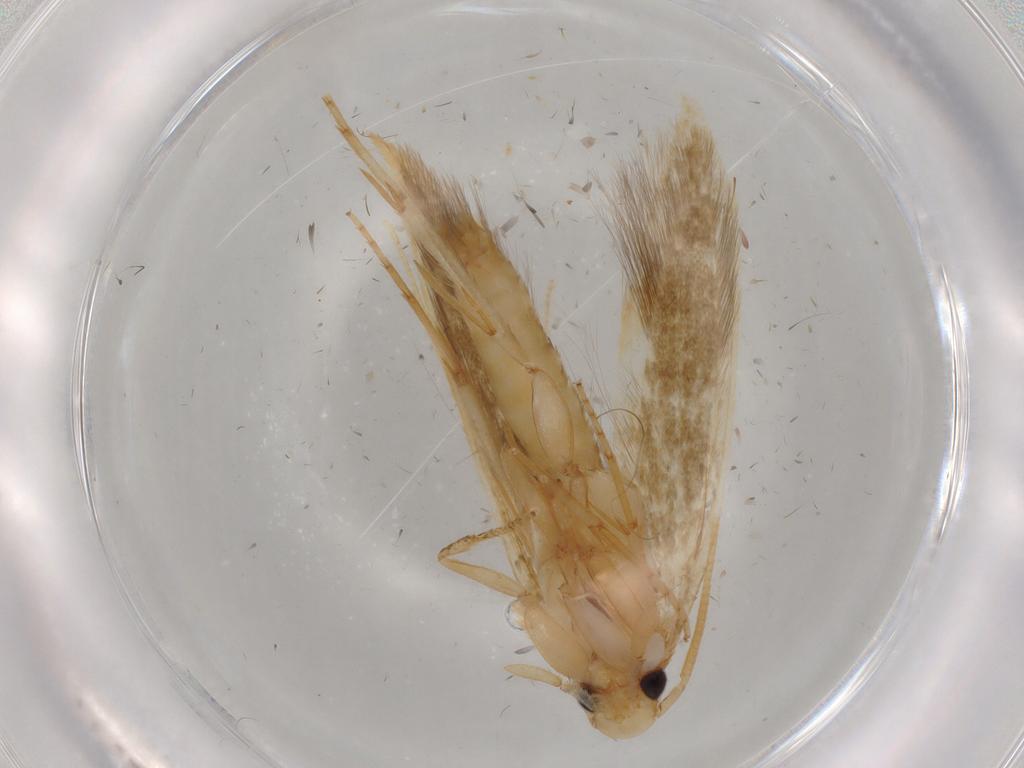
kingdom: Animalia
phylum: Arthropoda
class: Insecta
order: Lepidoptera
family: Tineidae
